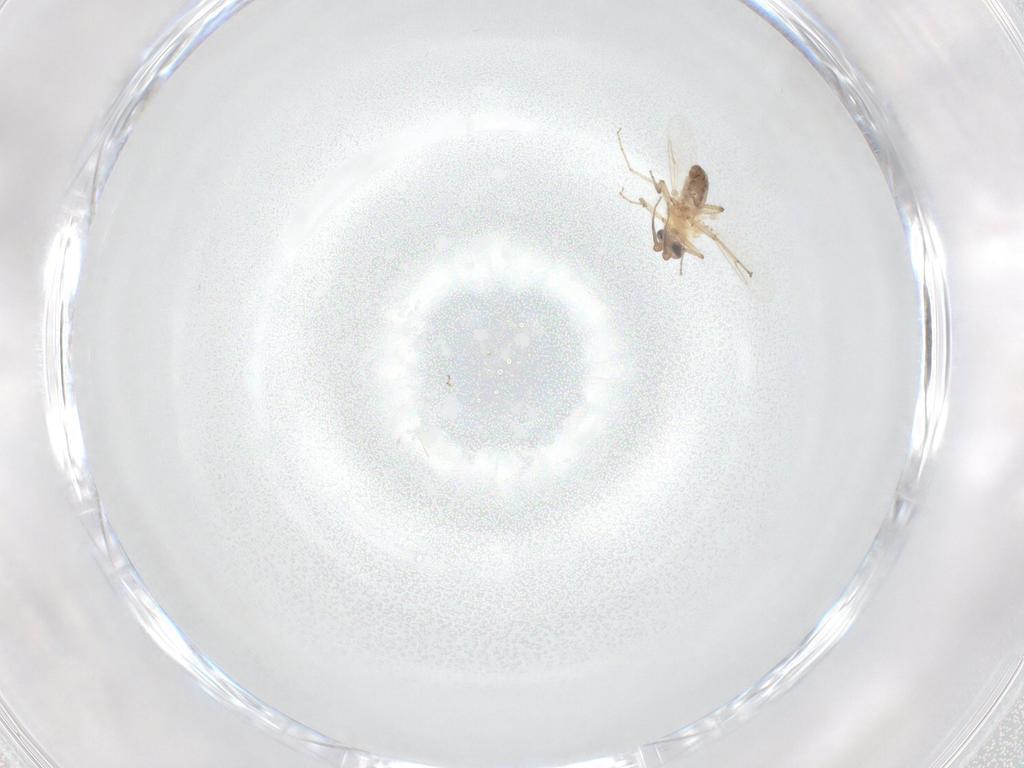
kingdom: Animalia
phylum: Arthropoda
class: Insecta
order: Diptera
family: Ceratopogonidae
